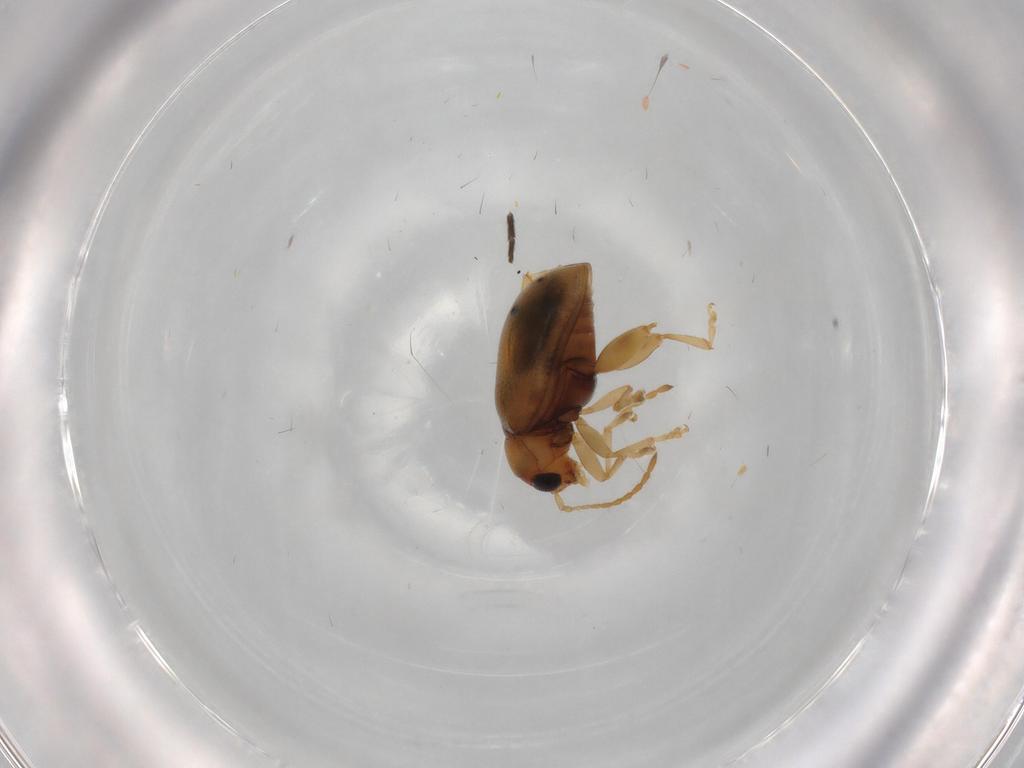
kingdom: Animalia
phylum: Arthropoda
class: Insecta
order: Coleoptera
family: Chrysomelidae
